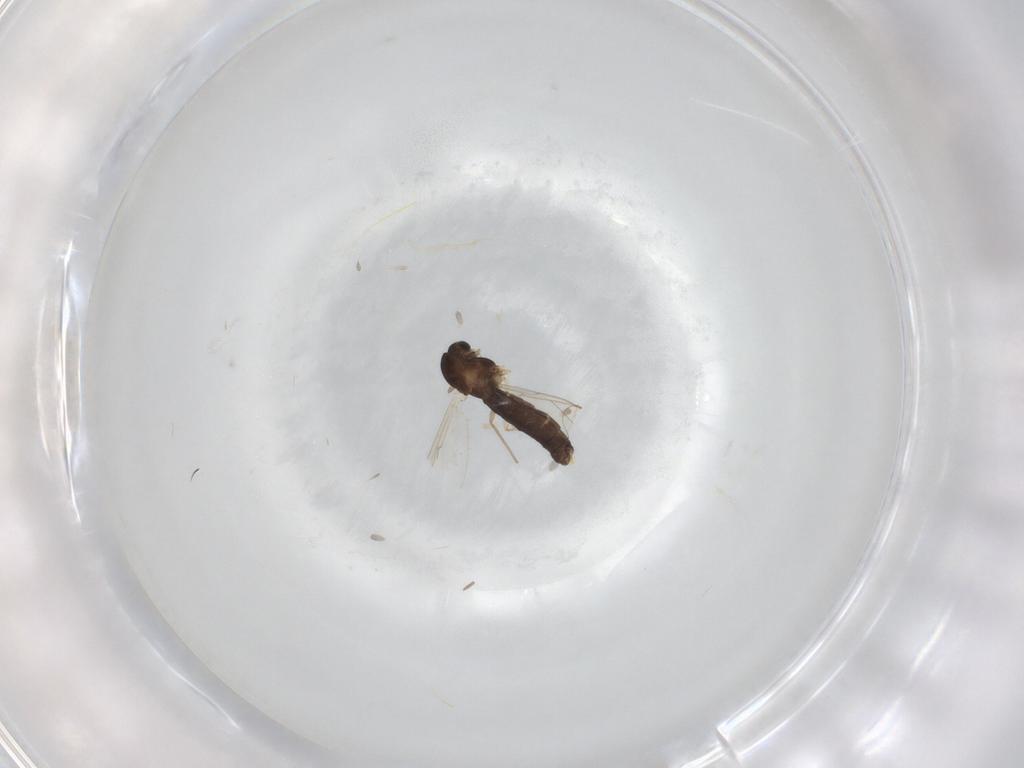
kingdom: Animalia
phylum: Arthropoda
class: Insecta
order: Diptera
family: Chironomidae
